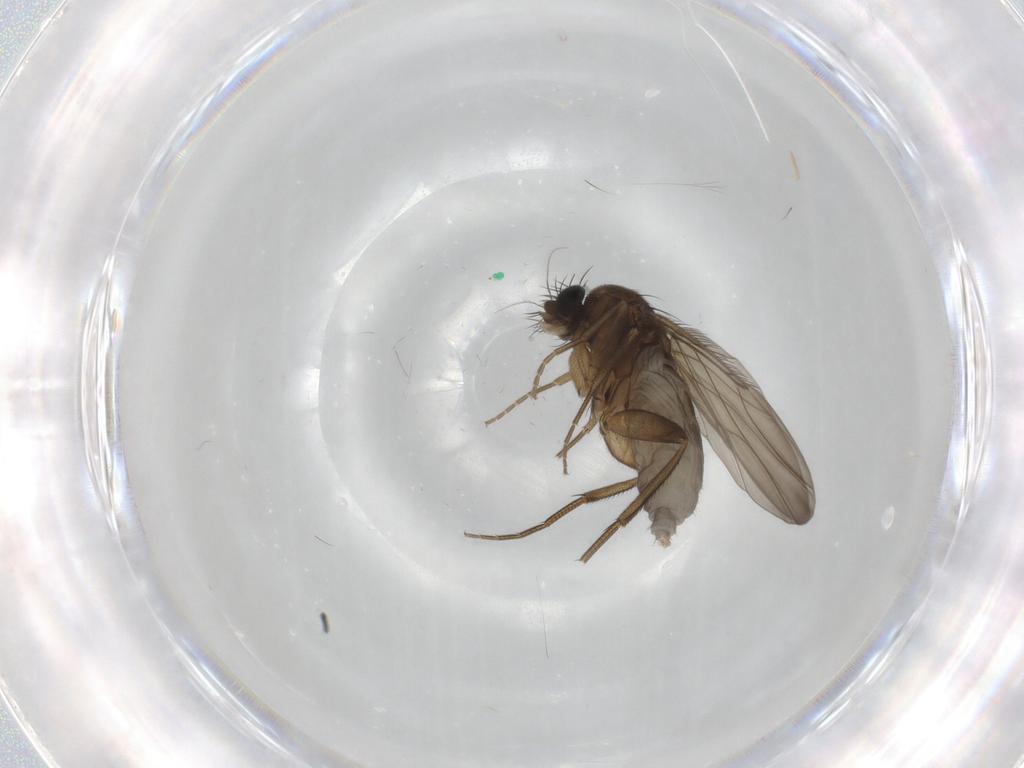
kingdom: Animalia
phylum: Arthropoda
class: Insecta
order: Diptera
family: Phoridae
